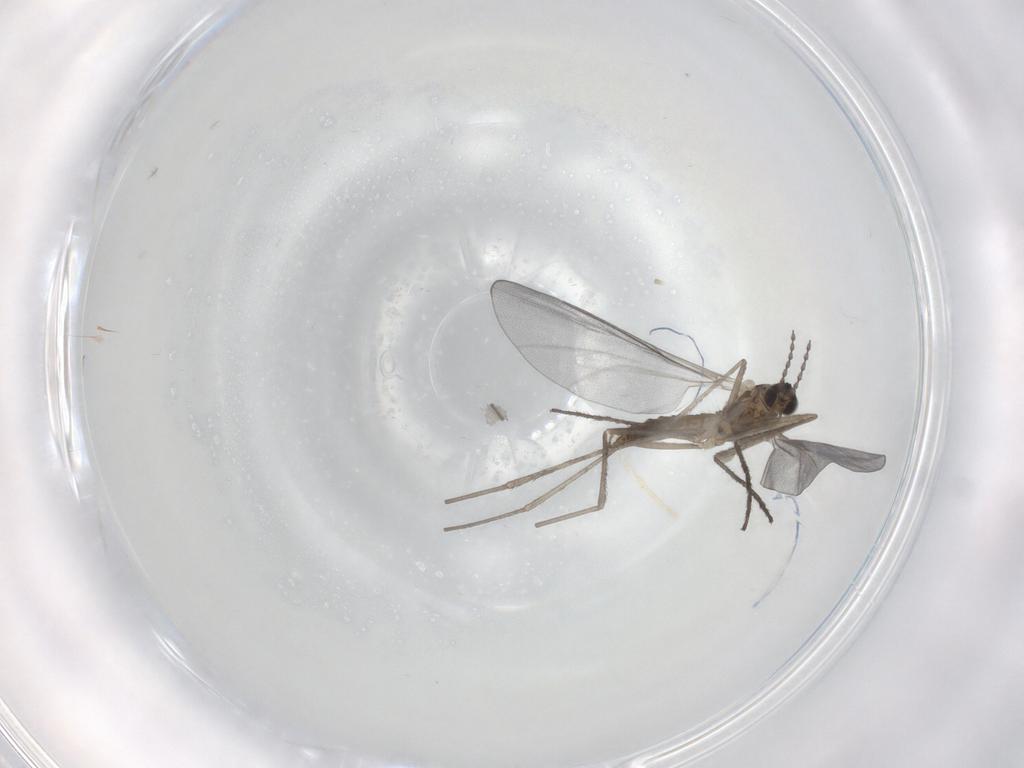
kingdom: Animalia
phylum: Arthropoda
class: Insecta
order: Diptera
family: Cecidomyiidae
